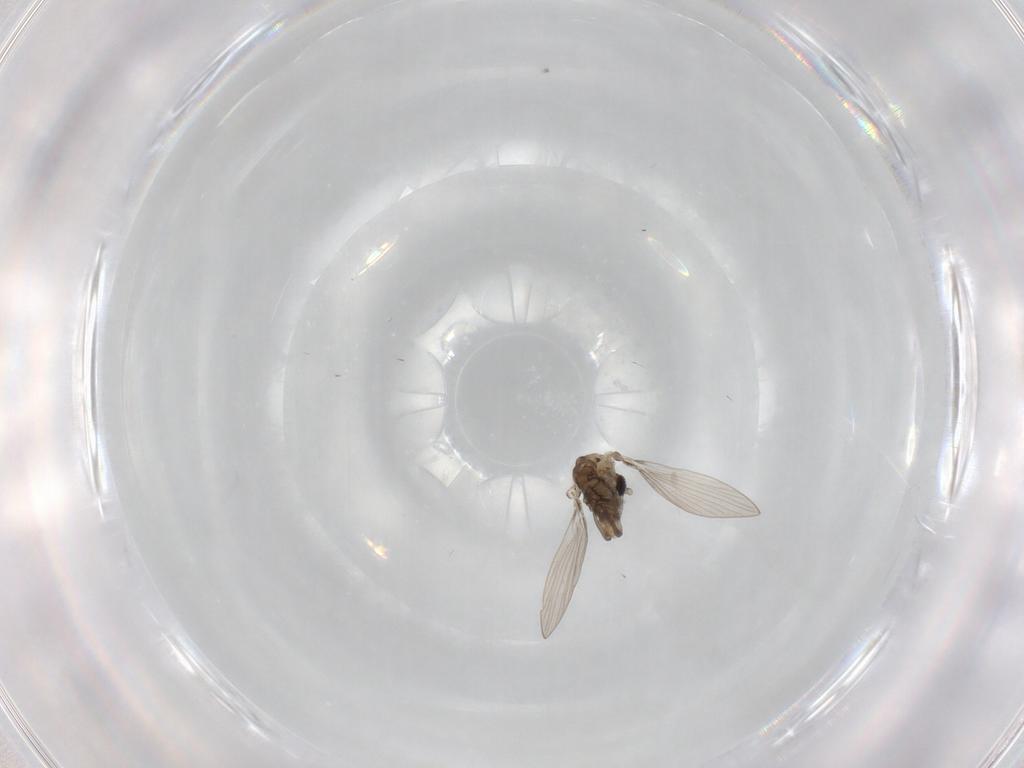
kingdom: Animalia
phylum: Arthropoda
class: Insecta
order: Diptera
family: Drosophilidae
